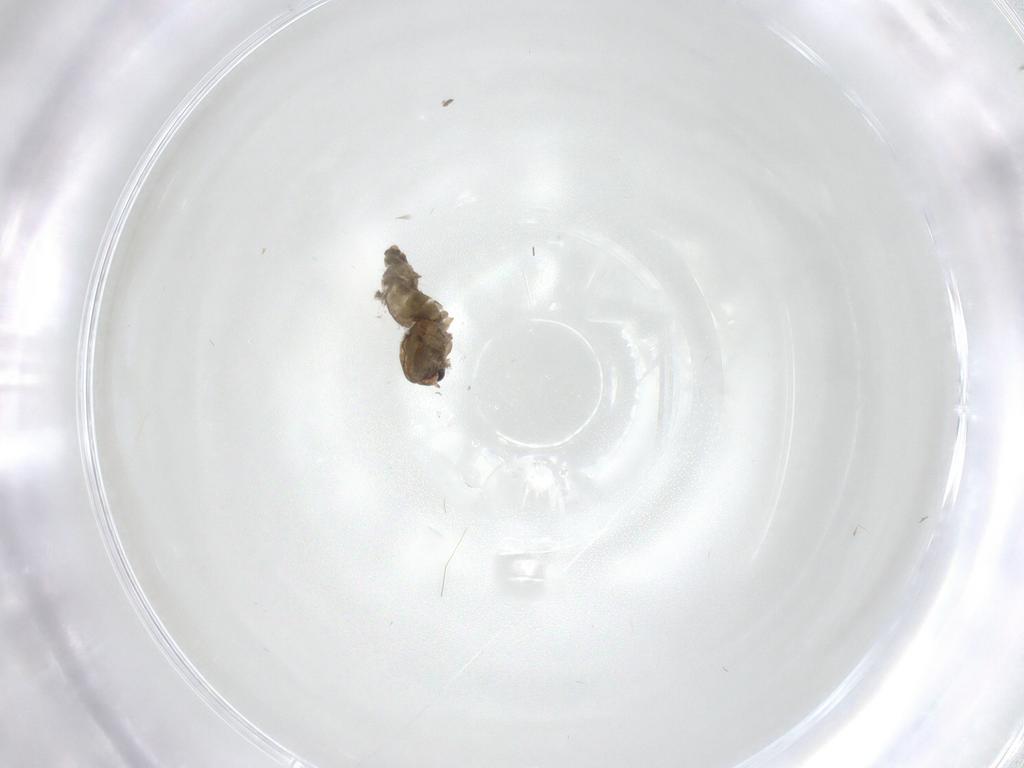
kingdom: Animalia
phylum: Arthropoda
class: Insecta
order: Diptera
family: Psychodidae
